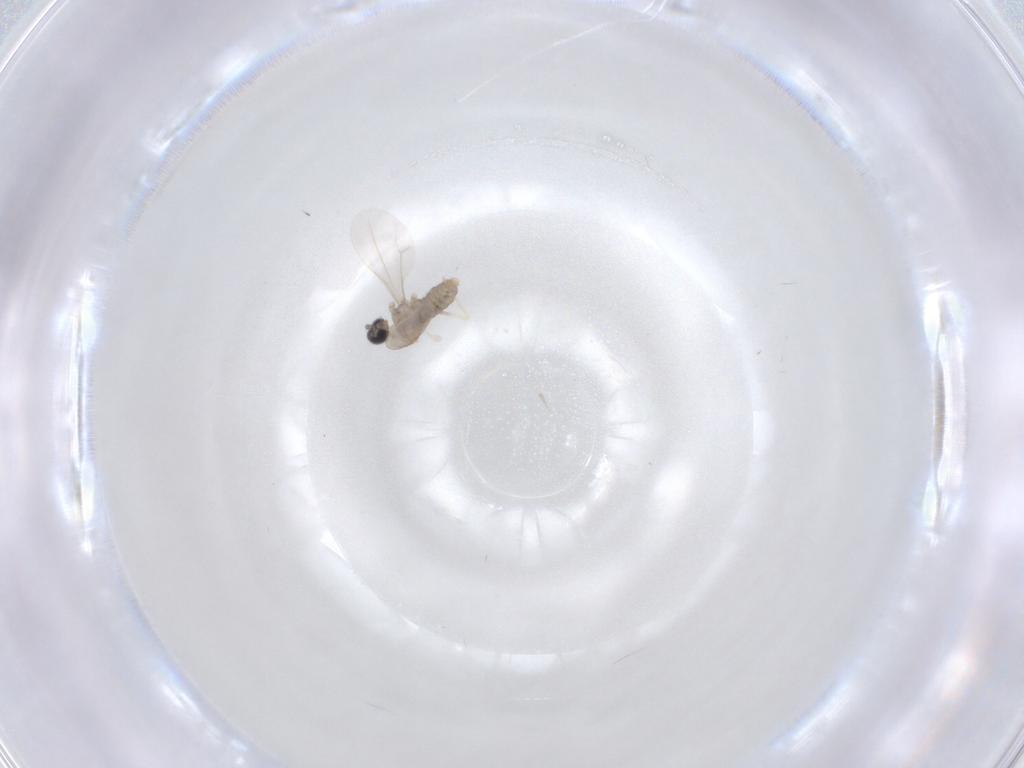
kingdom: Animalia
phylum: Arthropoda
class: Insecta
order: Diptera
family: Cecidomyiidae
